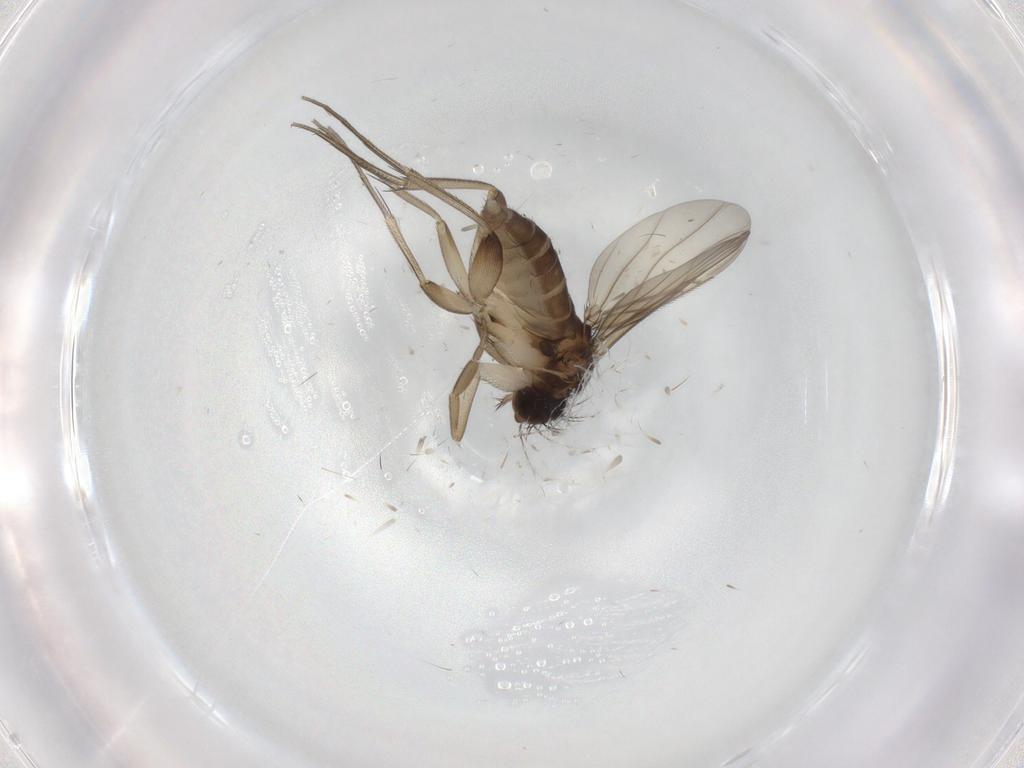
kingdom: Animalia
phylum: Arthropoda
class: Insecta
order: Diptera
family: Phoridae
